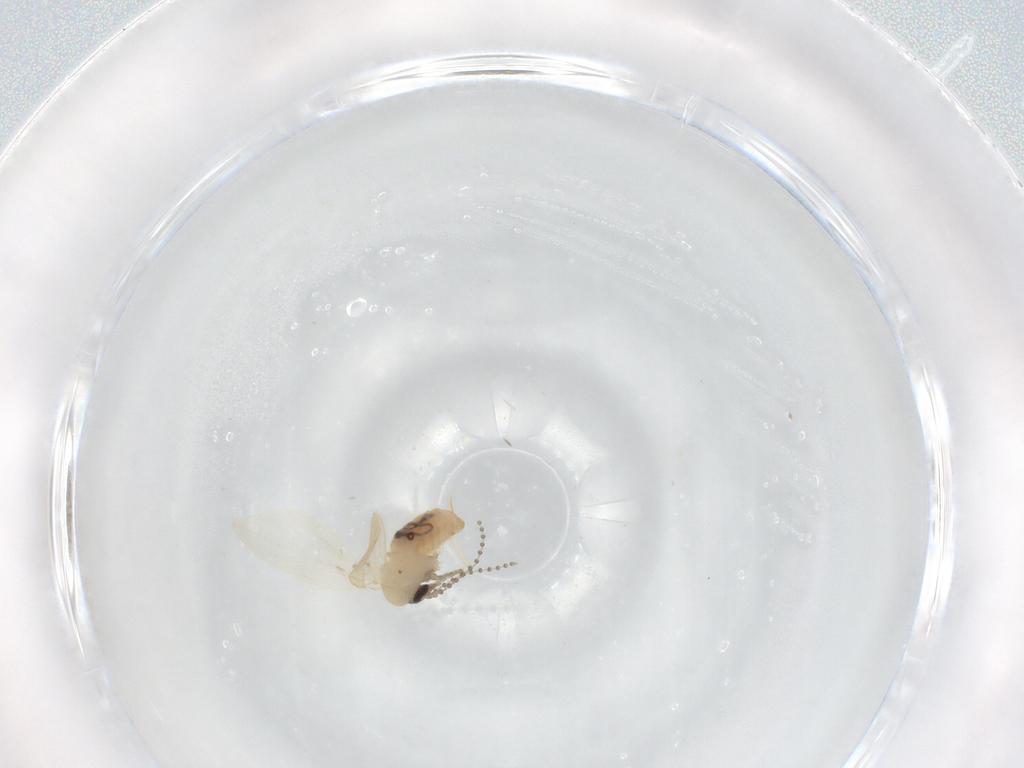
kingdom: Animalia
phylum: Arthropoda
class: Insecta
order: Diptera
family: Psychodidae
